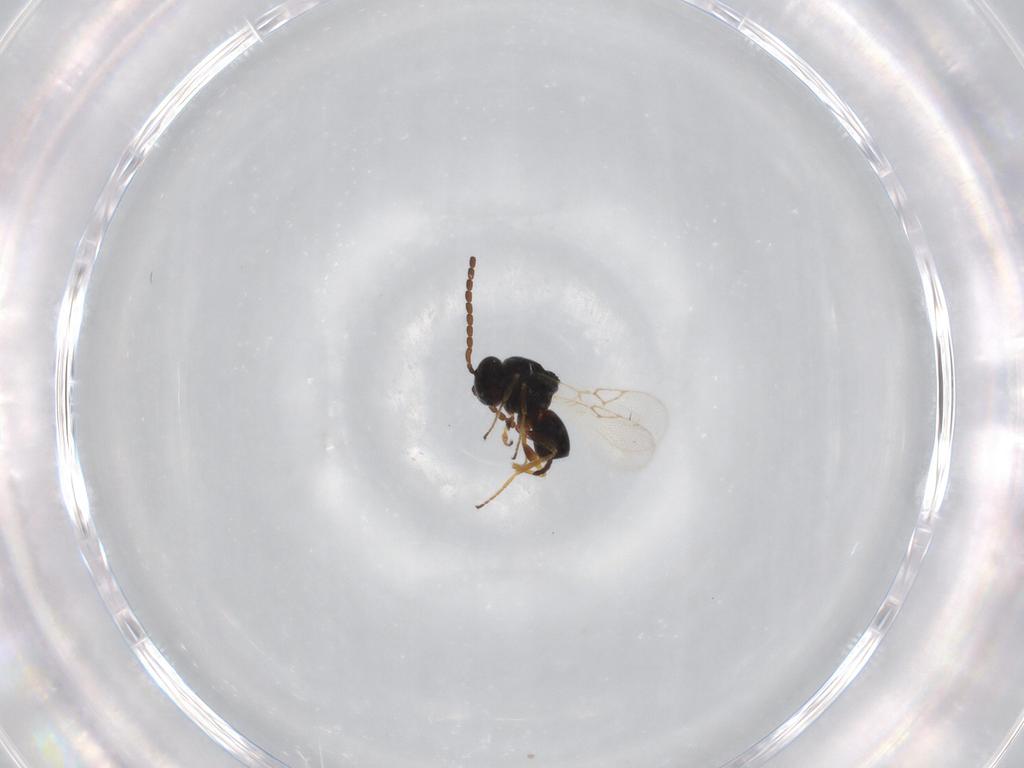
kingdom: Animalia
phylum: Arthropoda
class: Insecta
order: Hymenoptera
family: Figitidae
